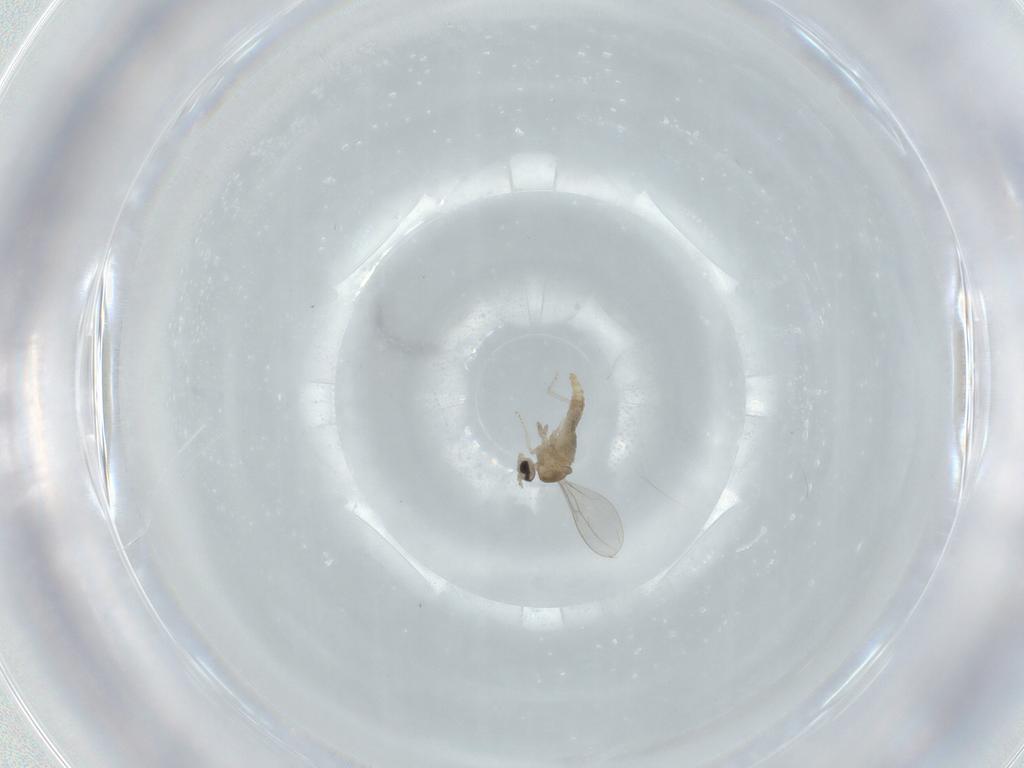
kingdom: Animalia
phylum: Arthropoda
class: Insecta
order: Diptera
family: Cecidomyiidae
